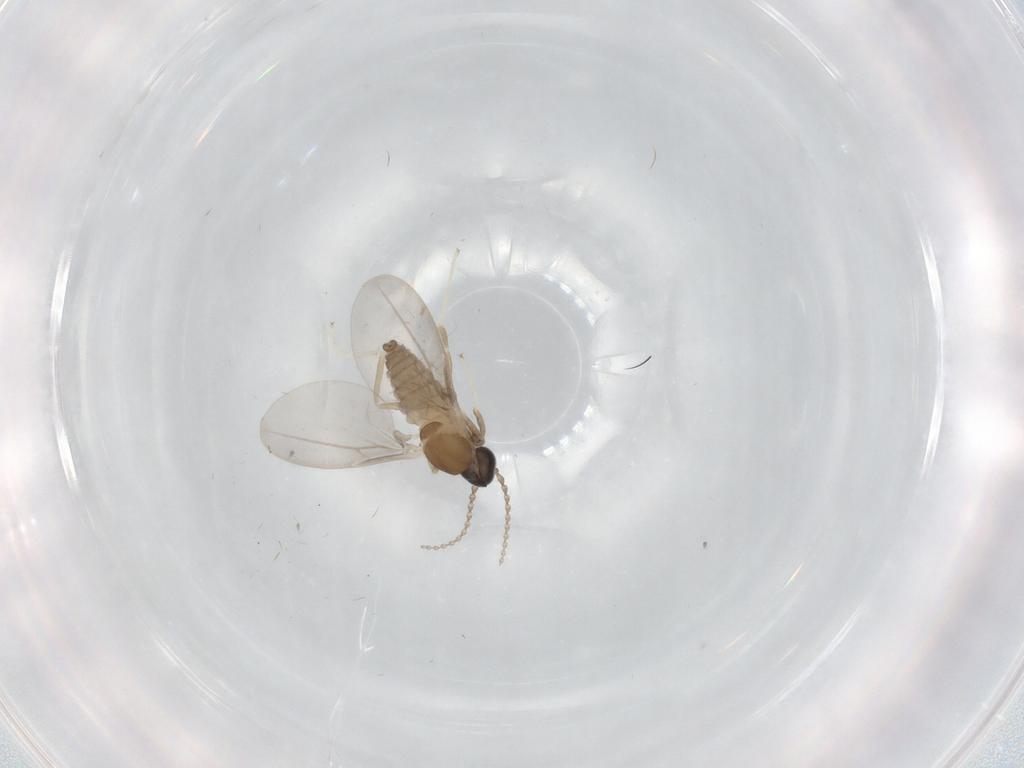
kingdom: Animalia
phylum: Arthropoda
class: Insecta
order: Diptera
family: Cecidomyiidae
